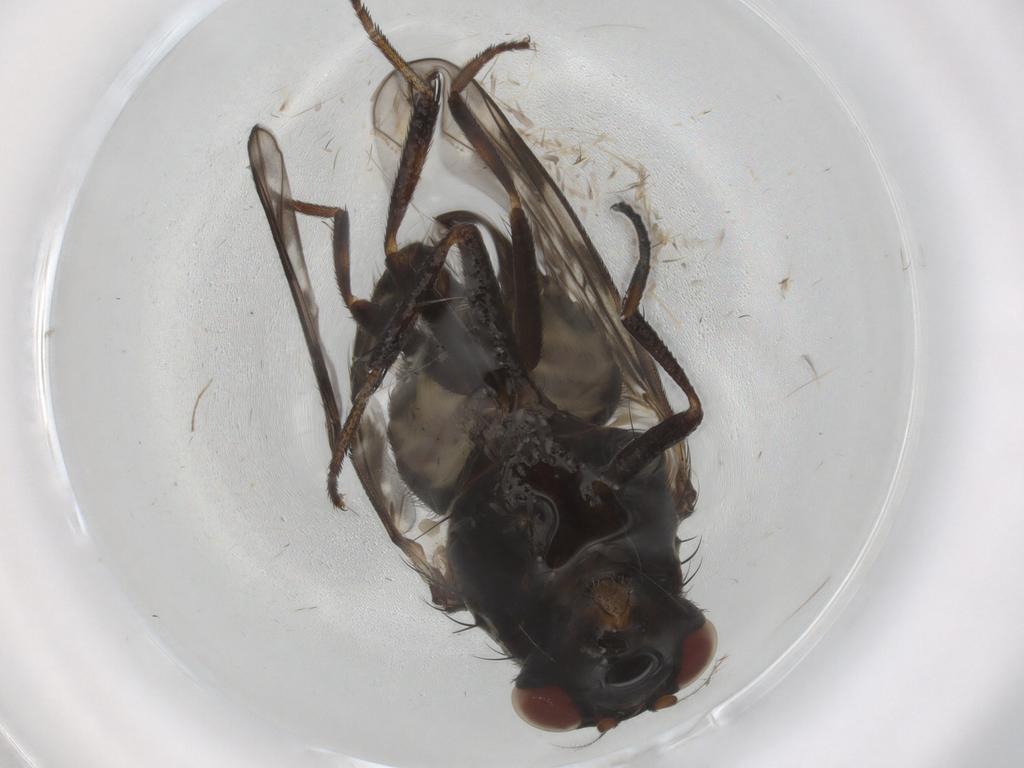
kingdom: Animalia
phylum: Arthropoda
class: Insecta
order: Diptera
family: Chironomidae
